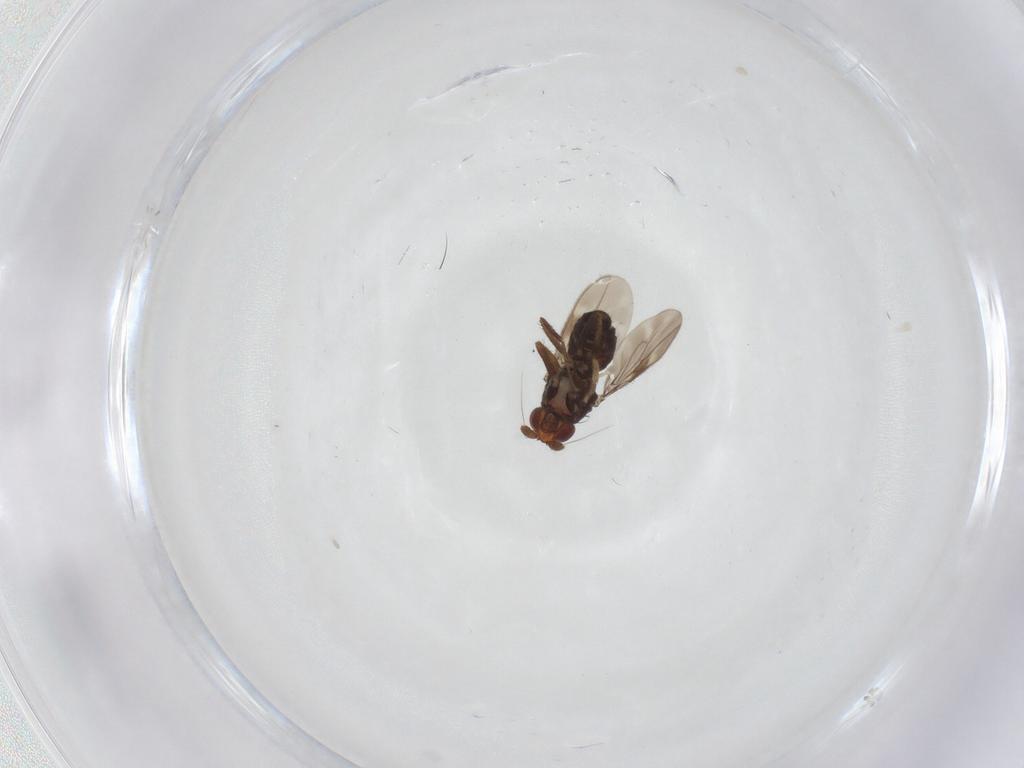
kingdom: Animalia
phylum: Arthropoda
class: Insecta
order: Diptera
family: Sphaeroceridae
